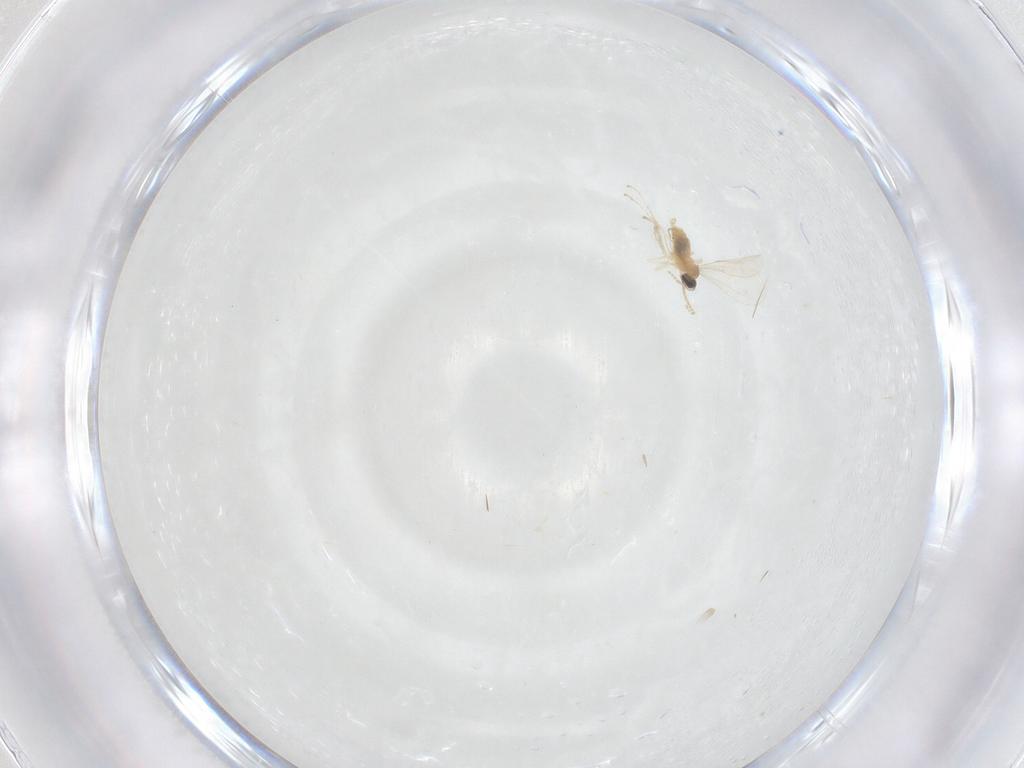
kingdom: Animalia
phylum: Arthropoda
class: Insecta
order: Diptera
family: Cecidomyiidae
